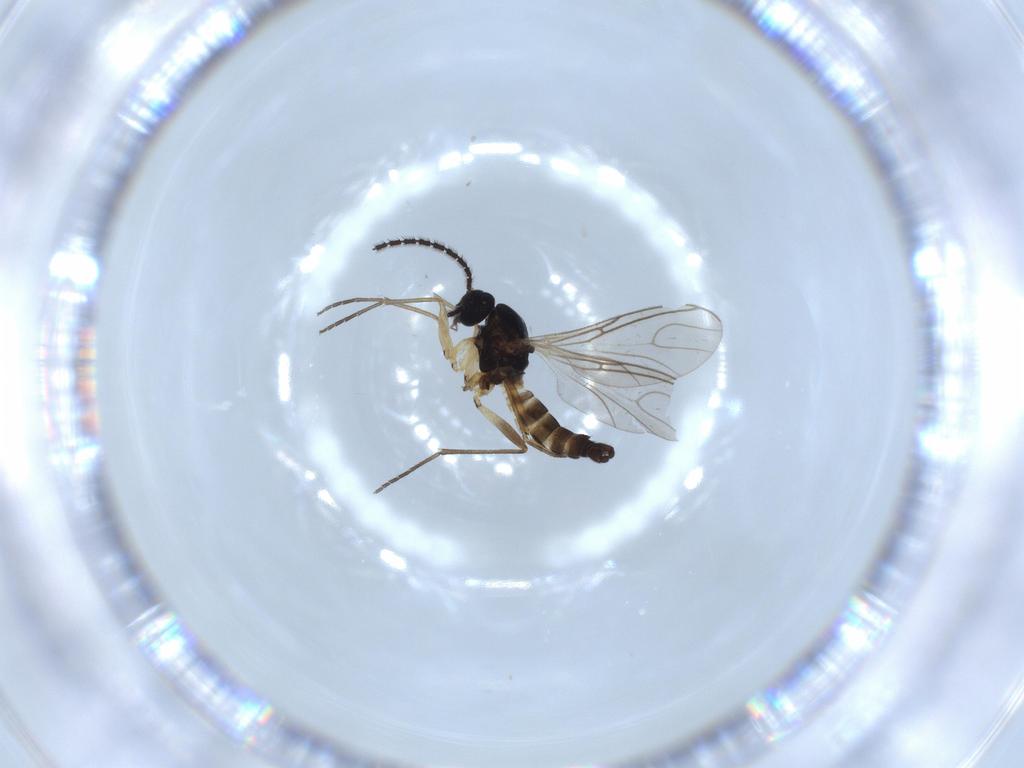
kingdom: Animalia
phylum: Arthropoda
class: Insecta
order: Diptera
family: Sciaridae
